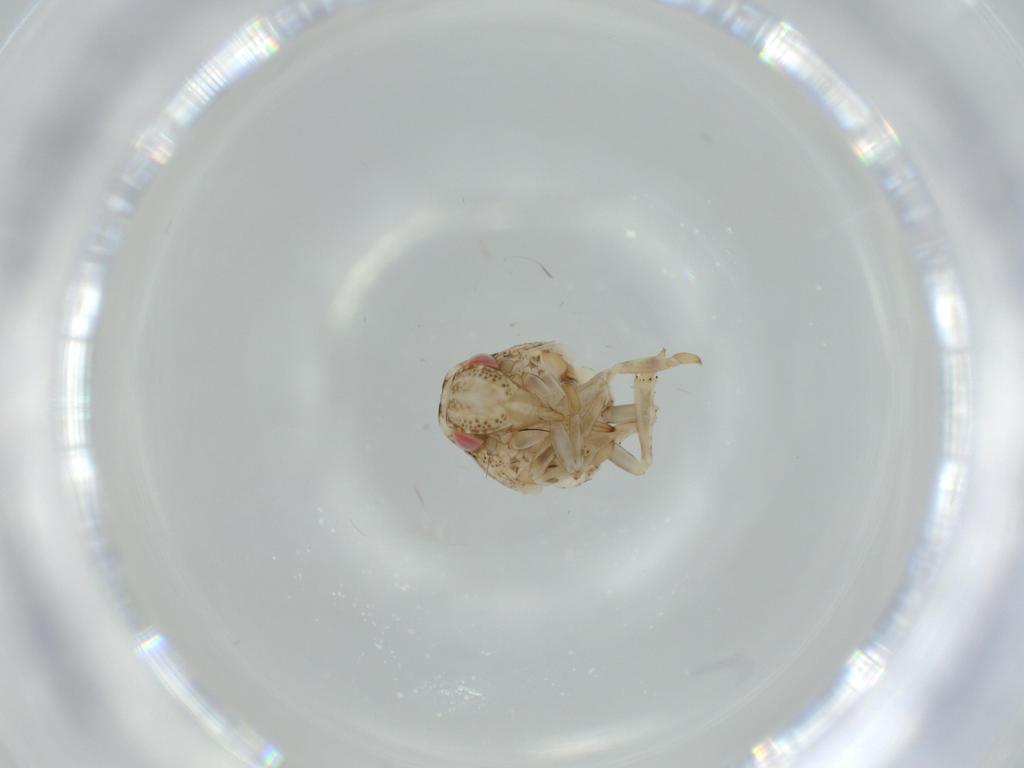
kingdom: Animalia
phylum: Arthropoda
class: Insecta
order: Hemiptera
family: Acanaloniidae
